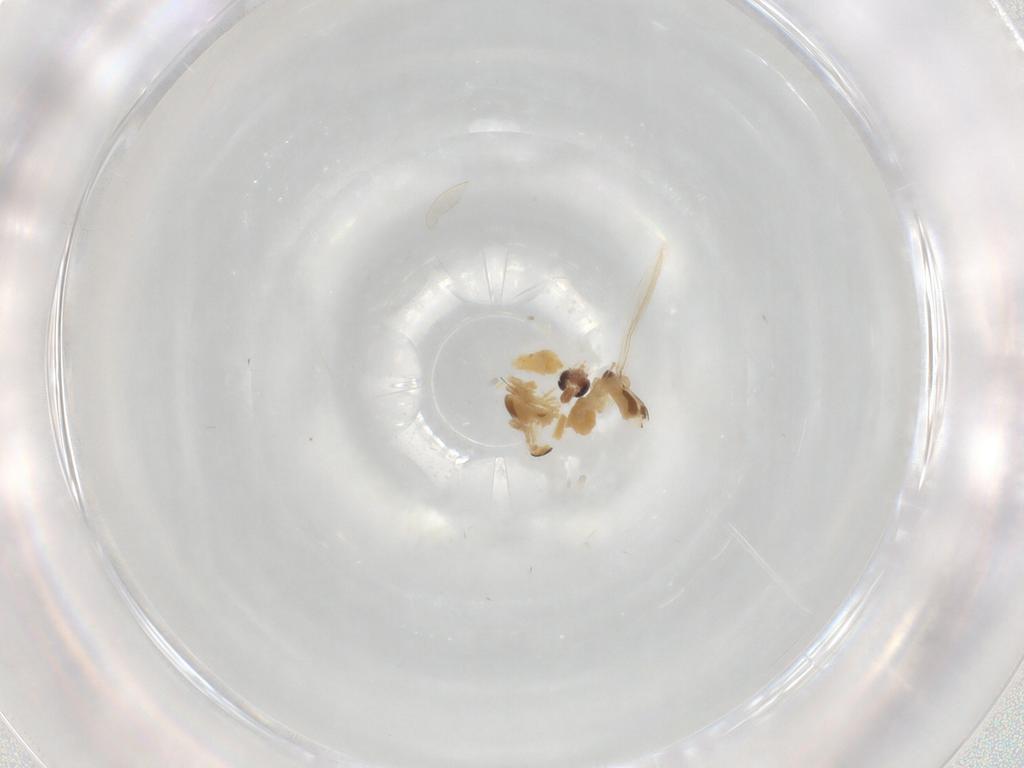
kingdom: Animalia
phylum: Arthropoda
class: Insecta
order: Diptera
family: Chironomidae
